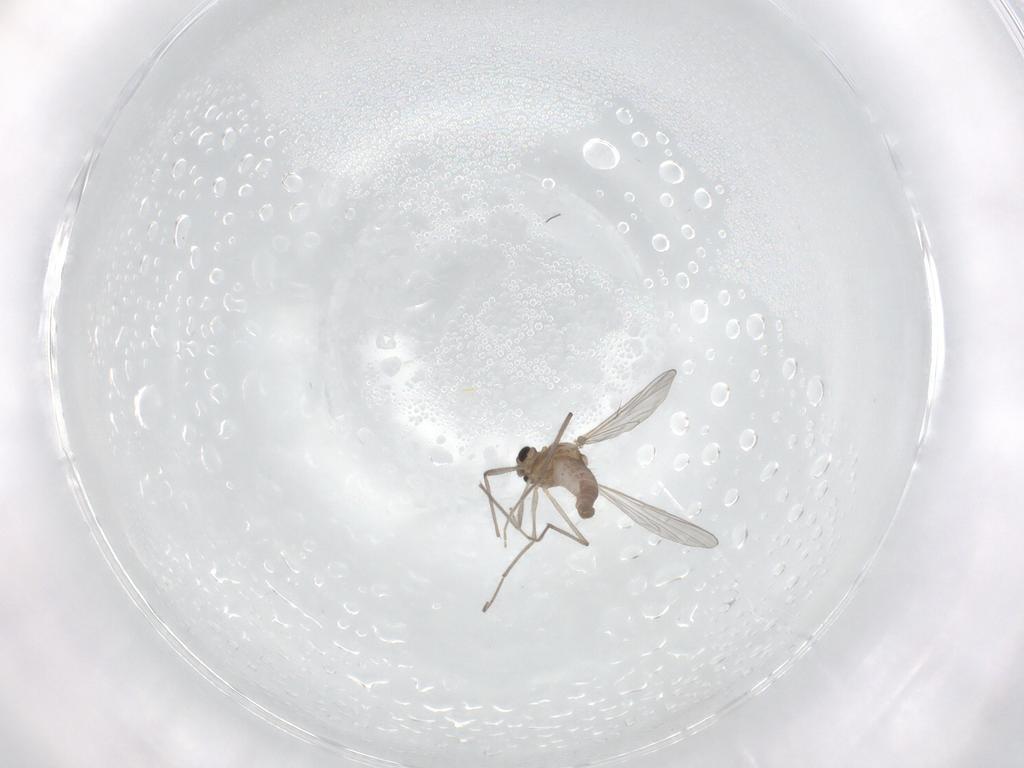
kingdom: Animalia
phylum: Arthropoda
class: Insecta
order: Diptera
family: Chironomidae
